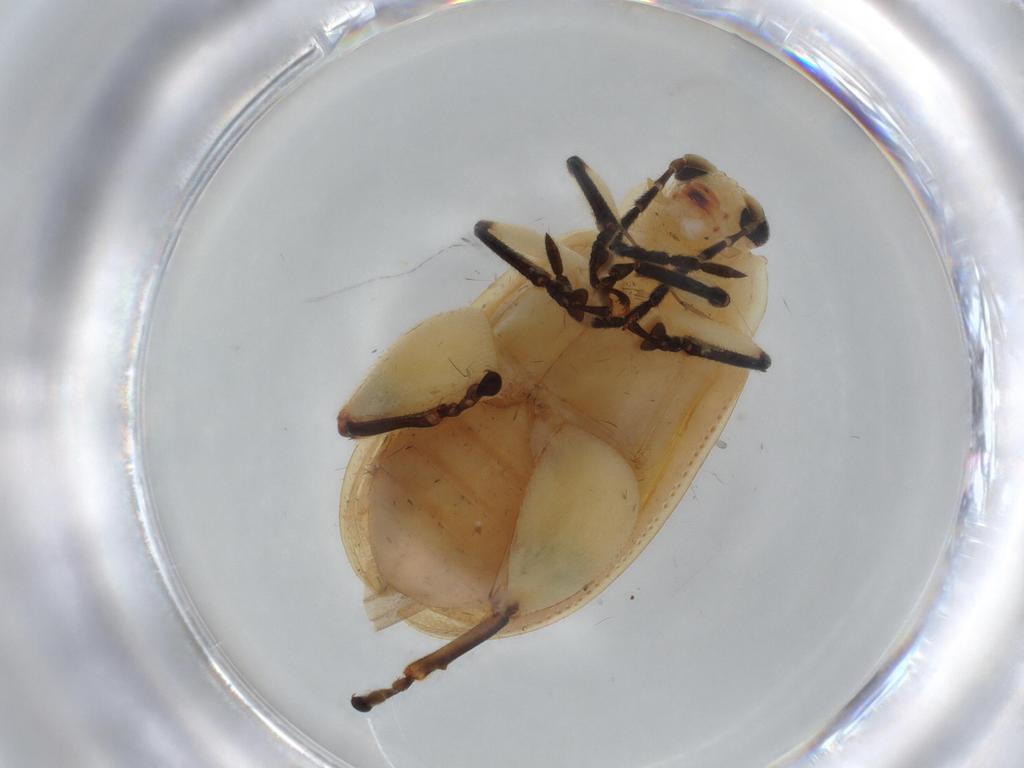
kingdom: Animalia
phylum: Arthropoda
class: Insecta
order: Coleoptera
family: Chrysomelidae
